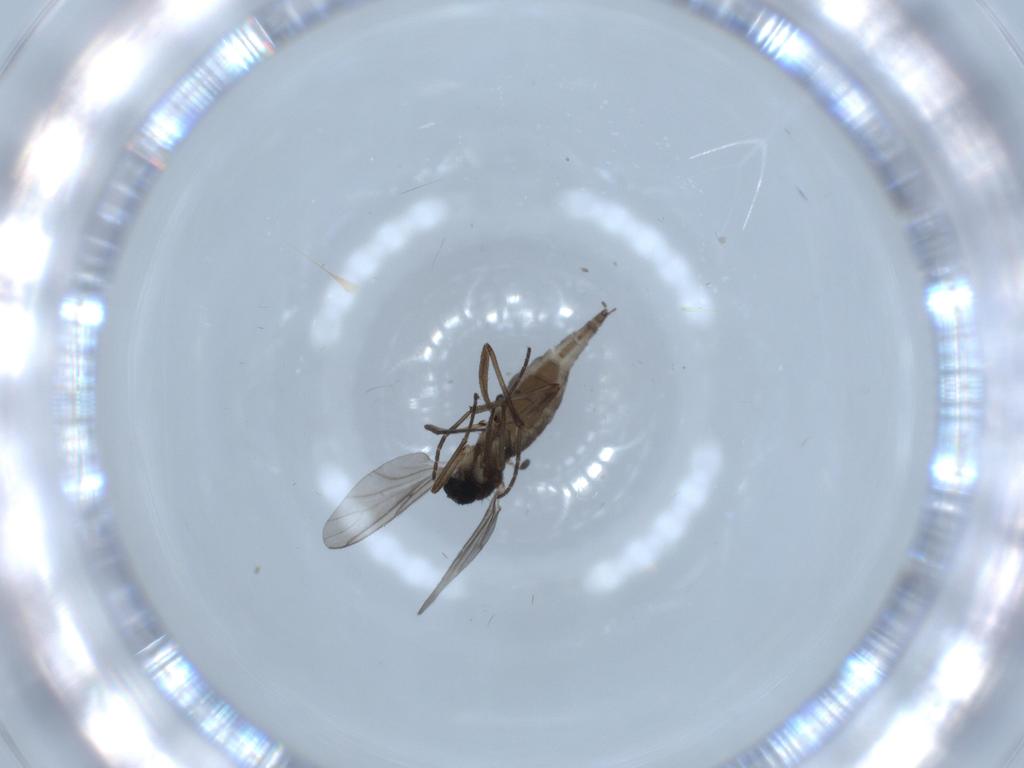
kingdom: Animalia
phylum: Arthropoda
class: Insecta
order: Diptera
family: Sciaridae
